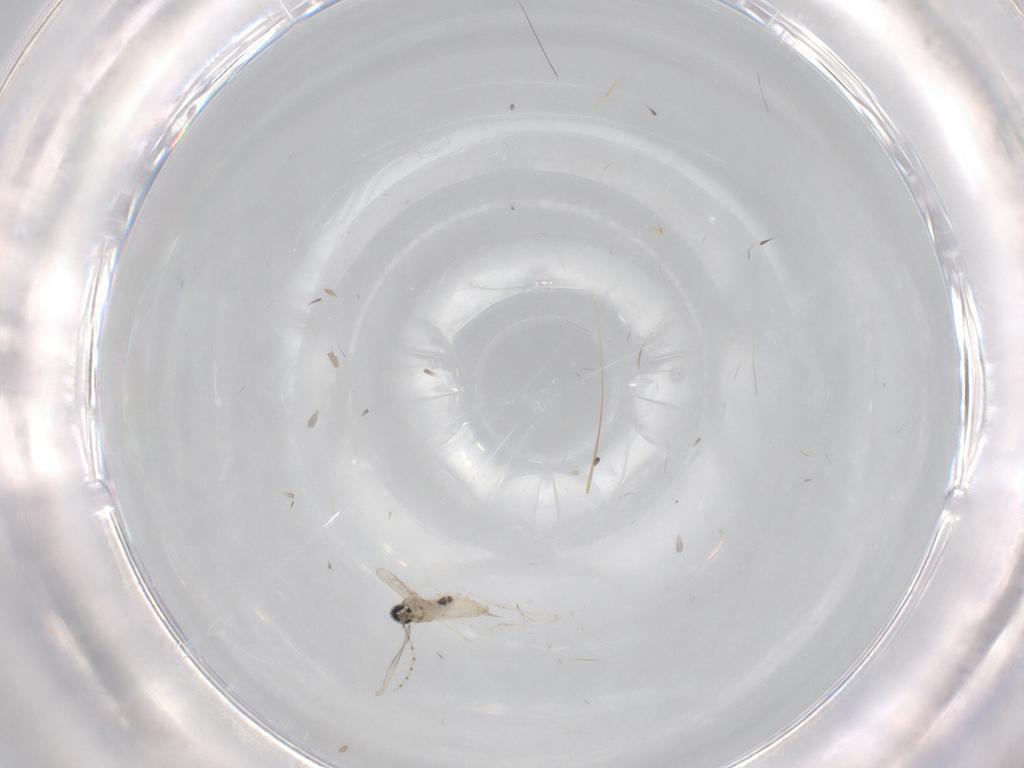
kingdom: Animalia
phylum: Arthropoda
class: Insecta
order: Diptera
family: Cecidomyiidae
